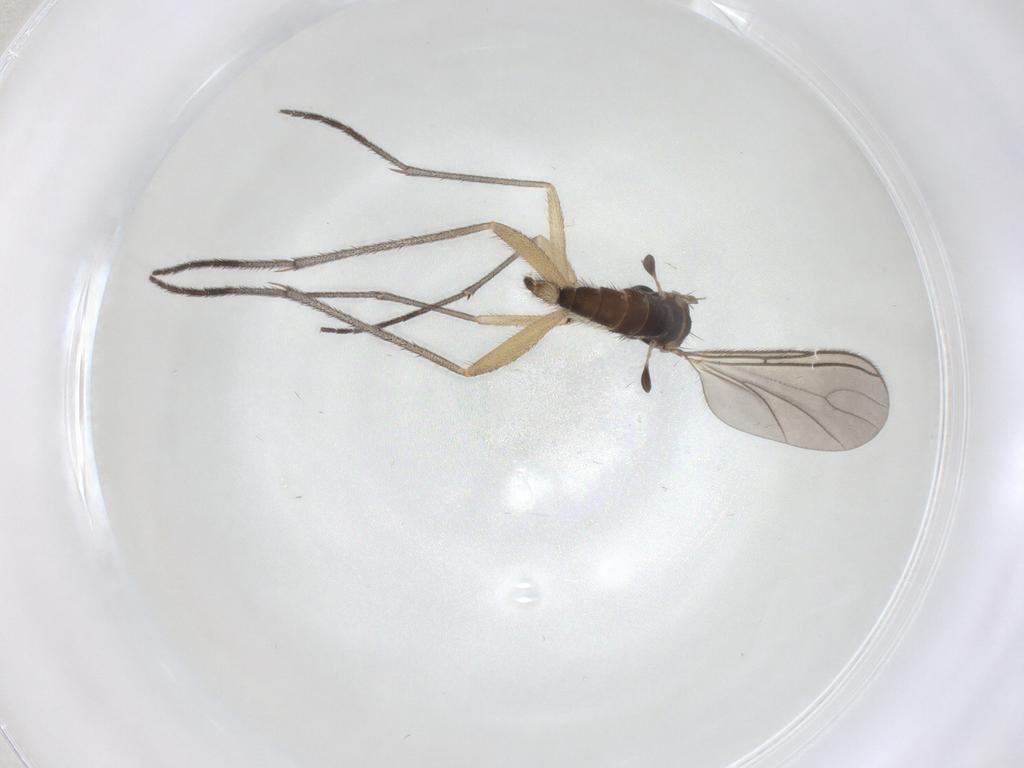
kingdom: Animalia
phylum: Arthropoda
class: Insecta
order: Diptera
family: Sciaridae
